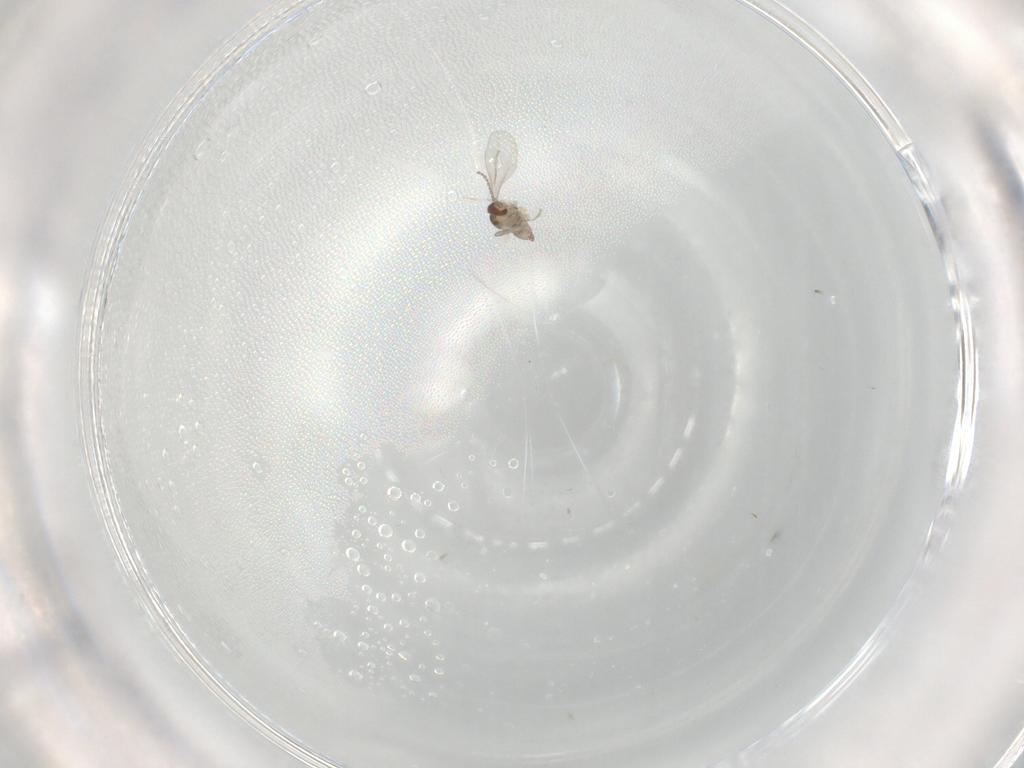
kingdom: Animalia
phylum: Arthropoda
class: Insecta
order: Diptera
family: Cecidomyiidae
